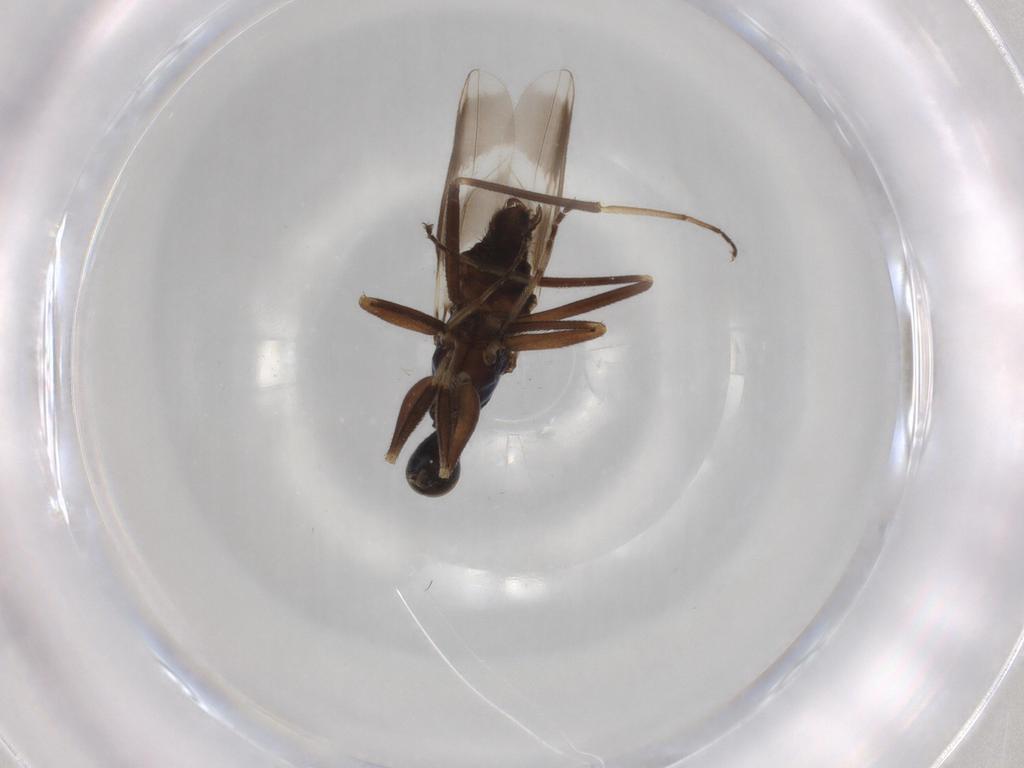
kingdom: Animalia
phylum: Arthropoda
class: Insecta
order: Diptera
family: Hybotidae
